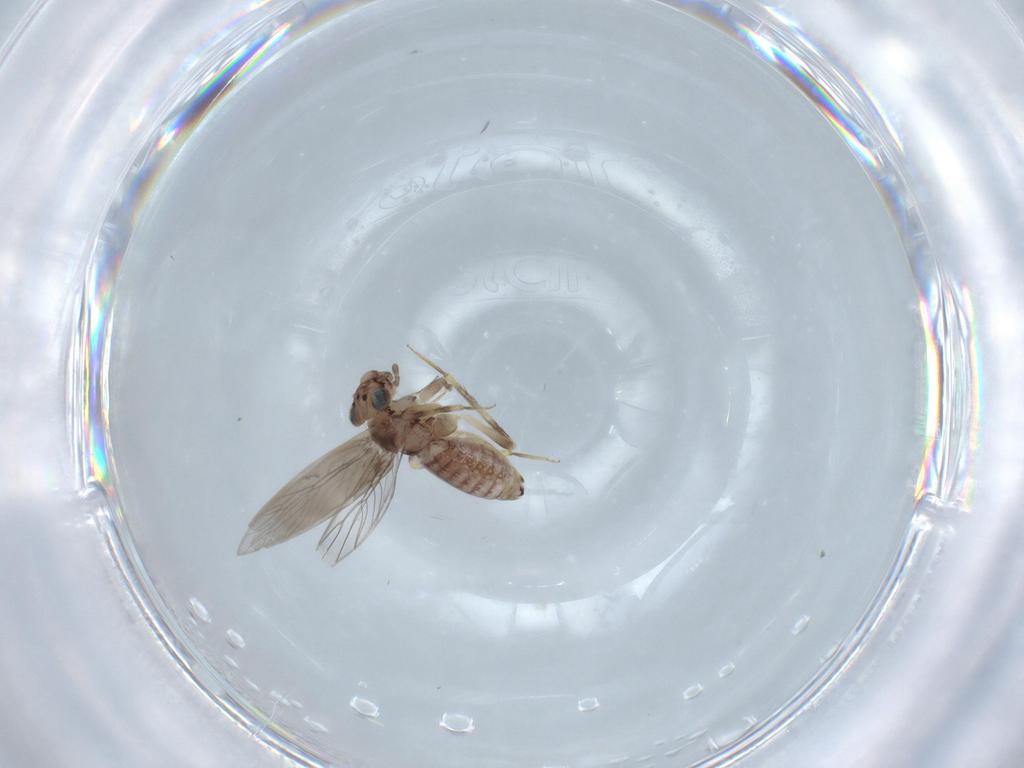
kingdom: Animalia
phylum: Arthropoda
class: Insecta
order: Psocodea
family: Lepidopsocidae
